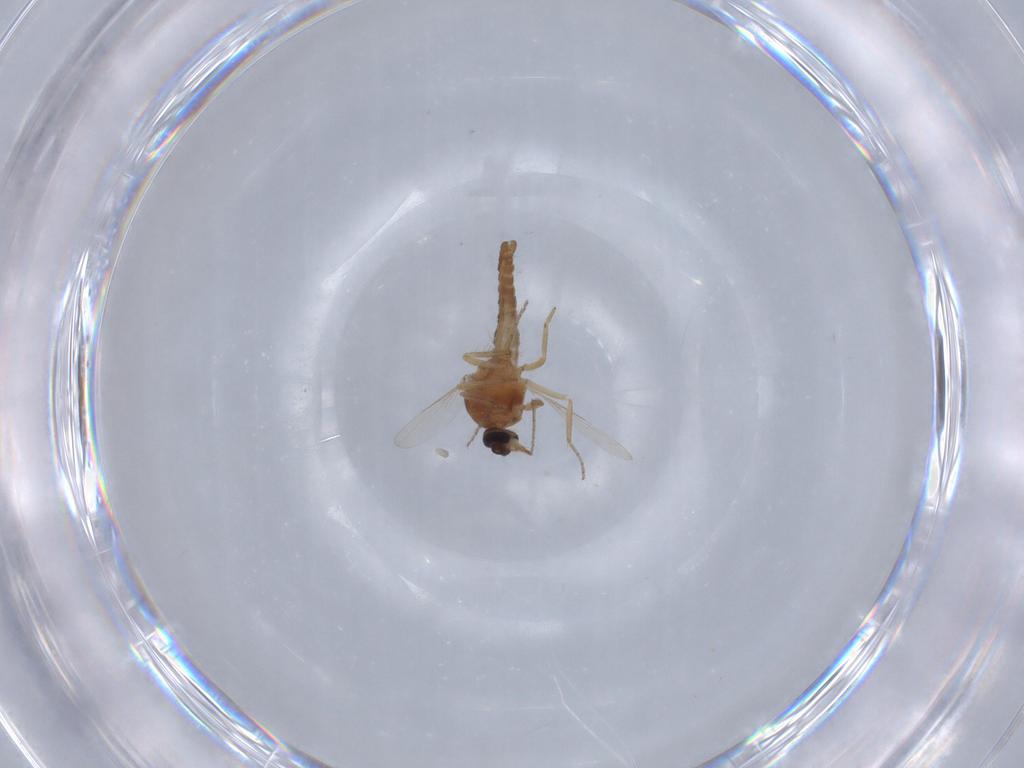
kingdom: Animalia
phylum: Arthropoda
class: Insecta
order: Diptera
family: Ceratopogonidae
